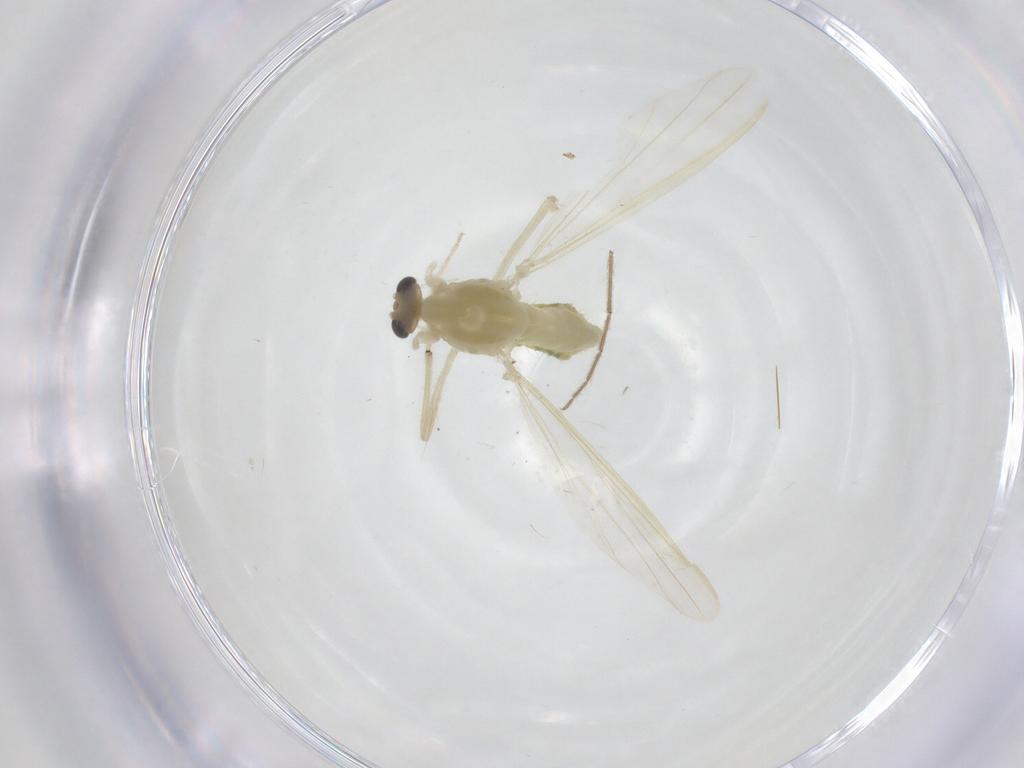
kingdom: Animalia
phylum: Arthropoda
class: Insecta
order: Diptera
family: Chironomidae
